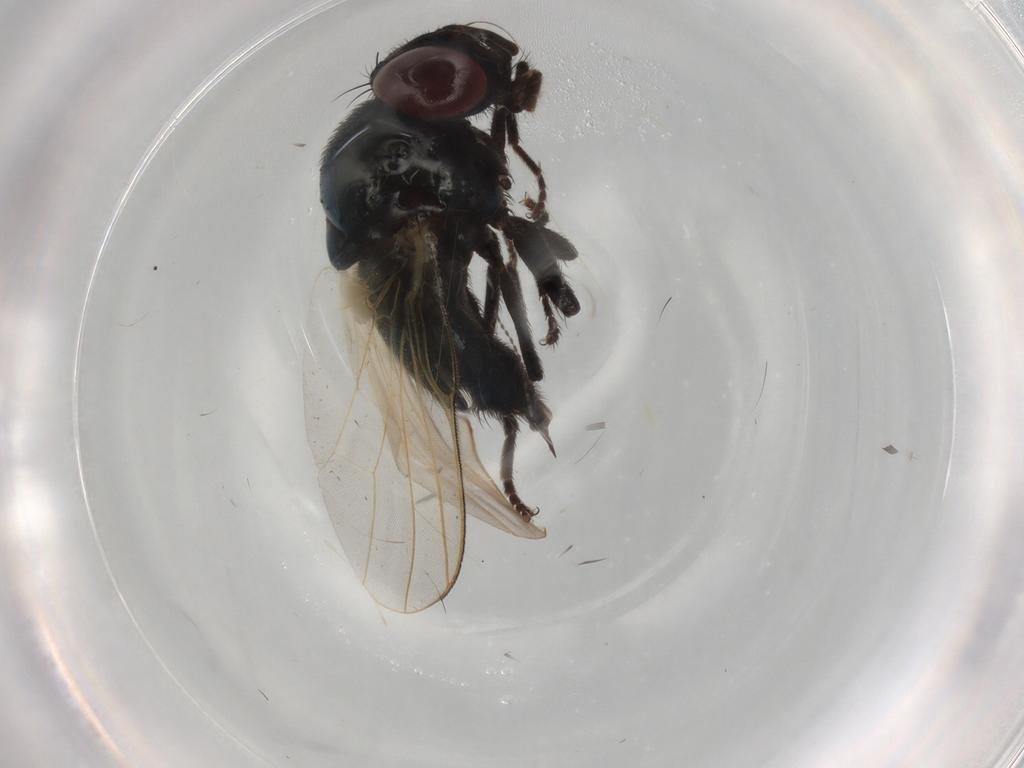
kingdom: Animalia
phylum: Arthropoda
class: Insecta
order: Diptera
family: Lonchaeidae
